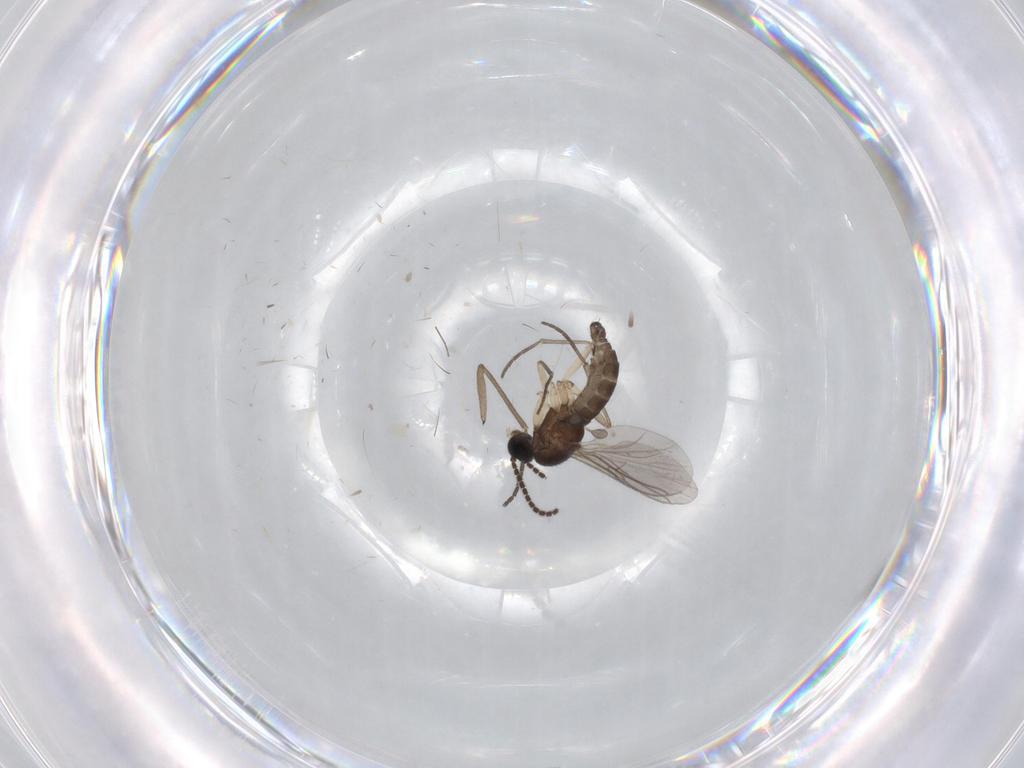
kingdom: Animalia
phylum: Arthropoda
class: Insecta
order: Diptera
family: Sciaridae
